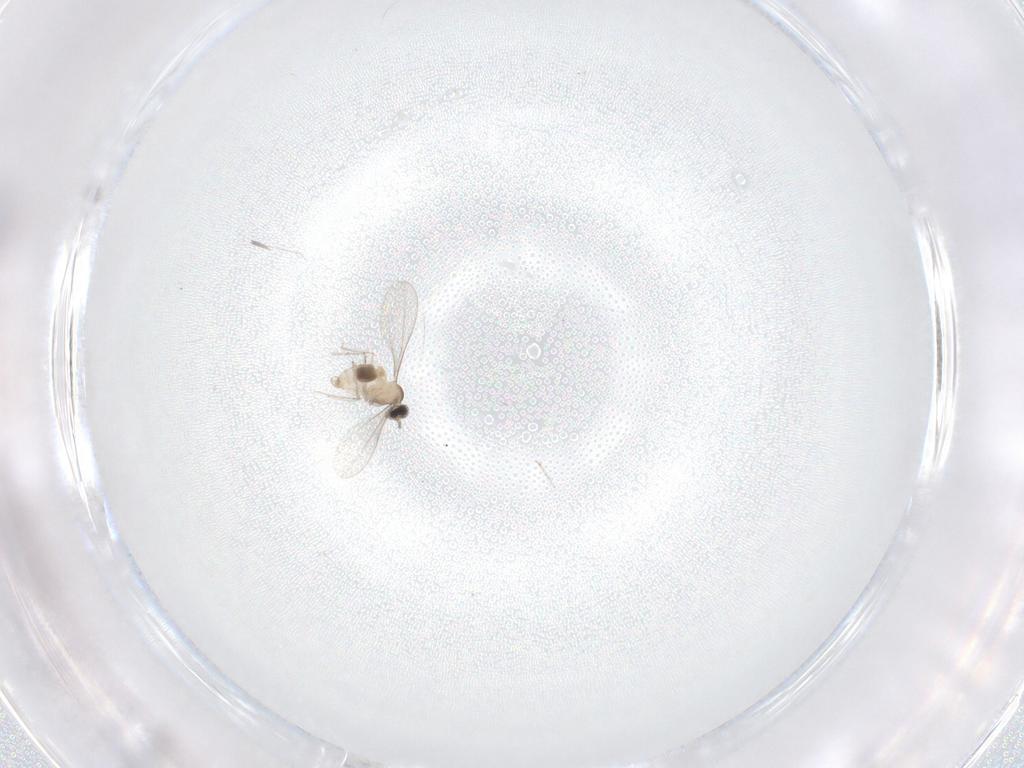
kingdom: Animalia
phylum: Arthropoda
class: Insecta
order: Diptera
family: Cecidomyiidae
